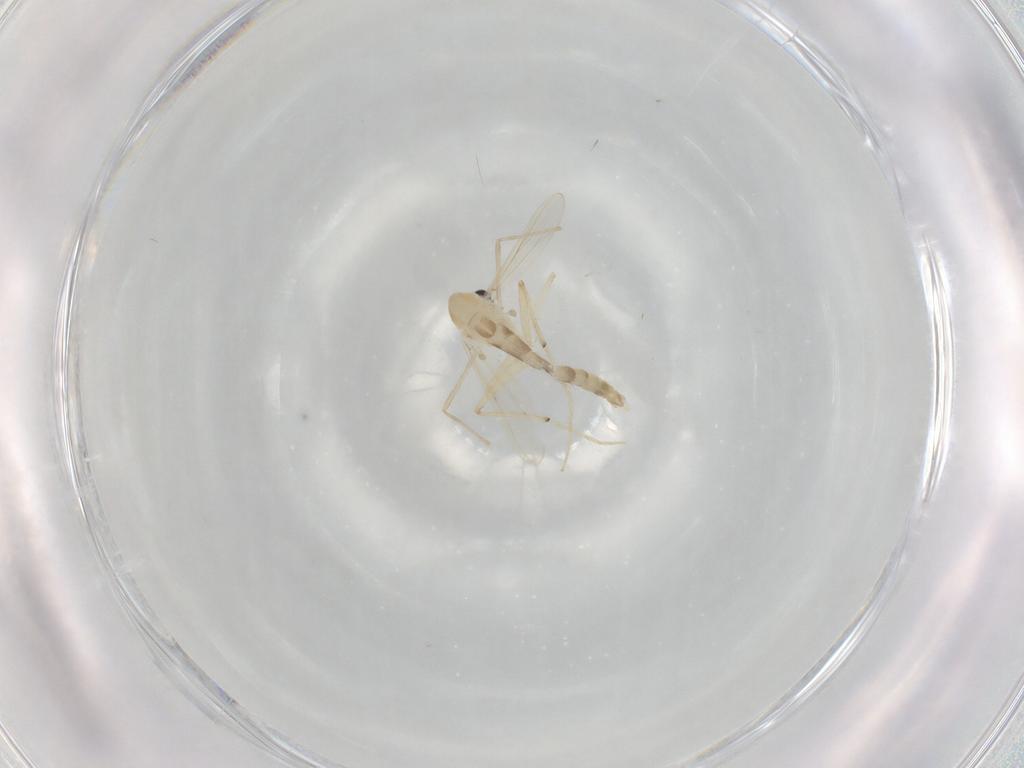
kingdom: Animalia
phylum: Arthropoda
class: Insecta
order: Diptera
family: Chironomidae
